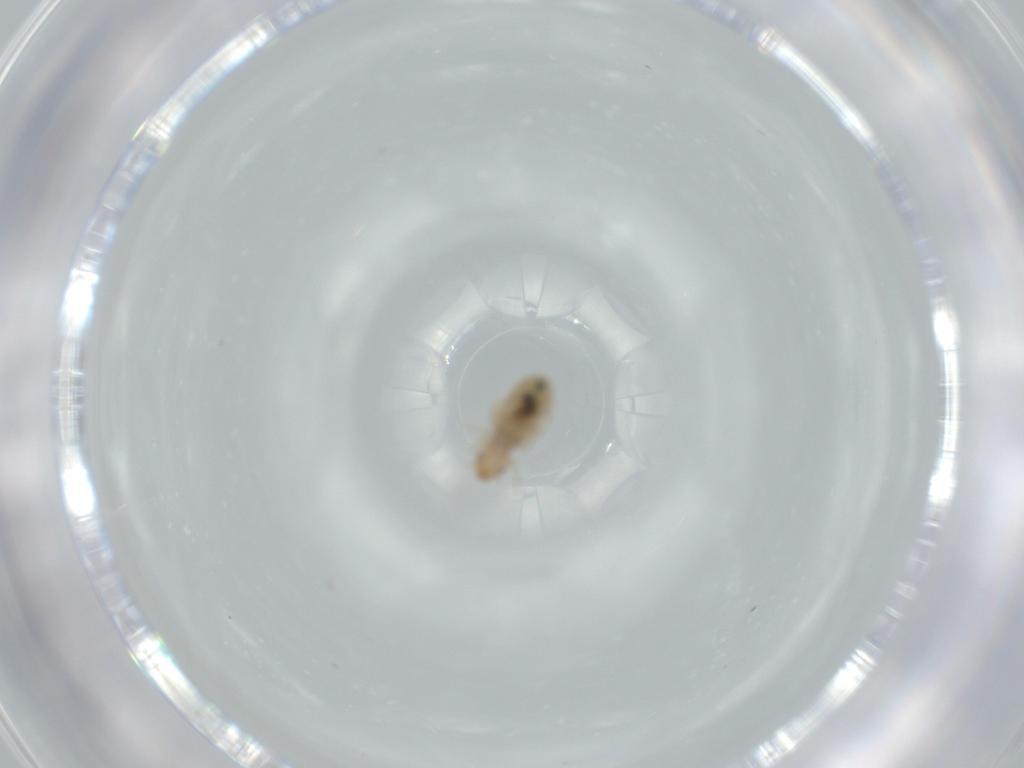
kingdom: Animalia
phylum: Arthropoda
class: Insecta
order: Psocodea
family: Liposcelididae
